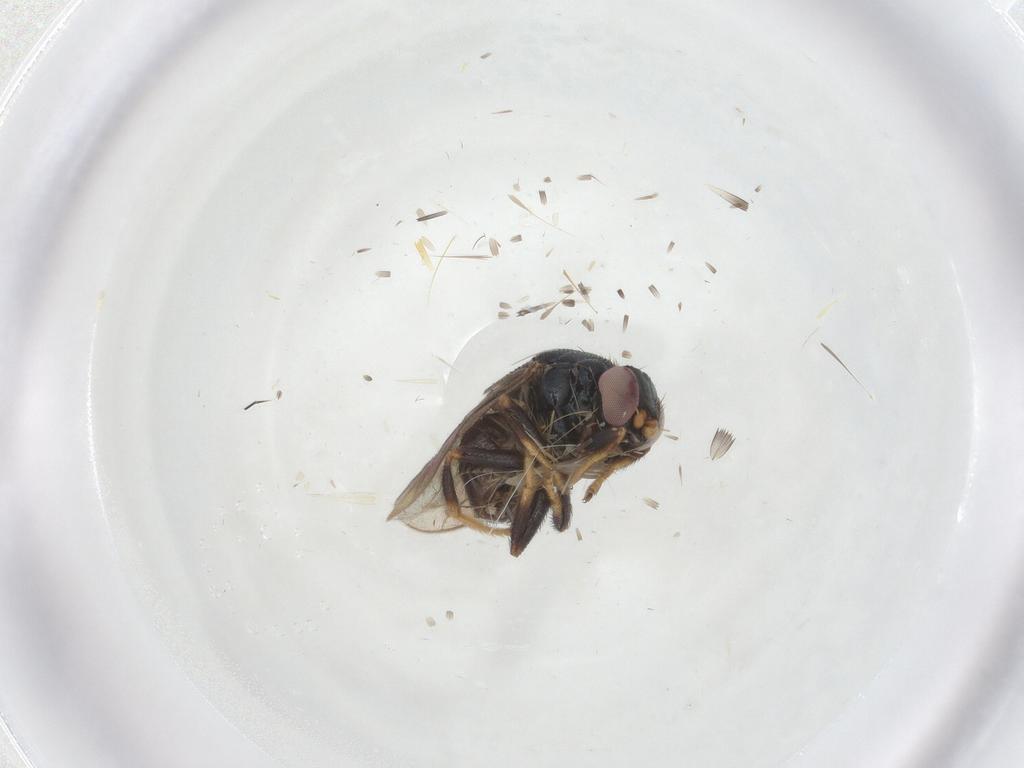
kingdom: Animalia
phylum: Arthropoda
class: Insecta
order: Diptera
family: Chloropidae
